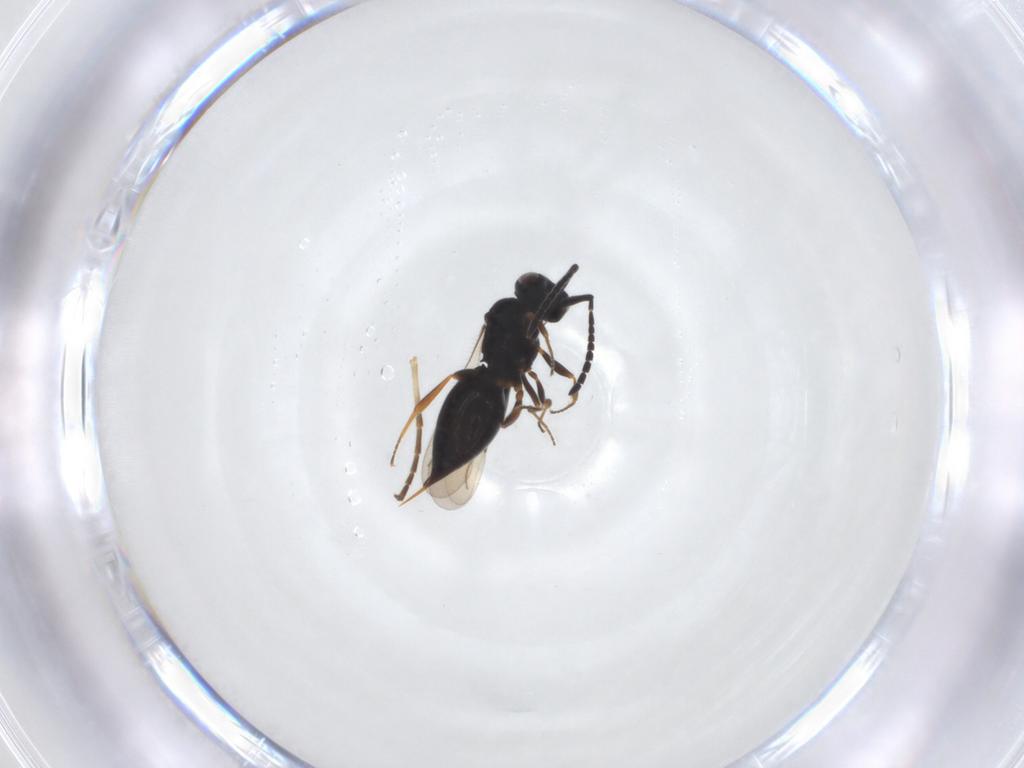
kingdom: Animalia
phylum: Arthropoda
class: Insecta
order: Hymenoptera
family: Ichneumonidae
